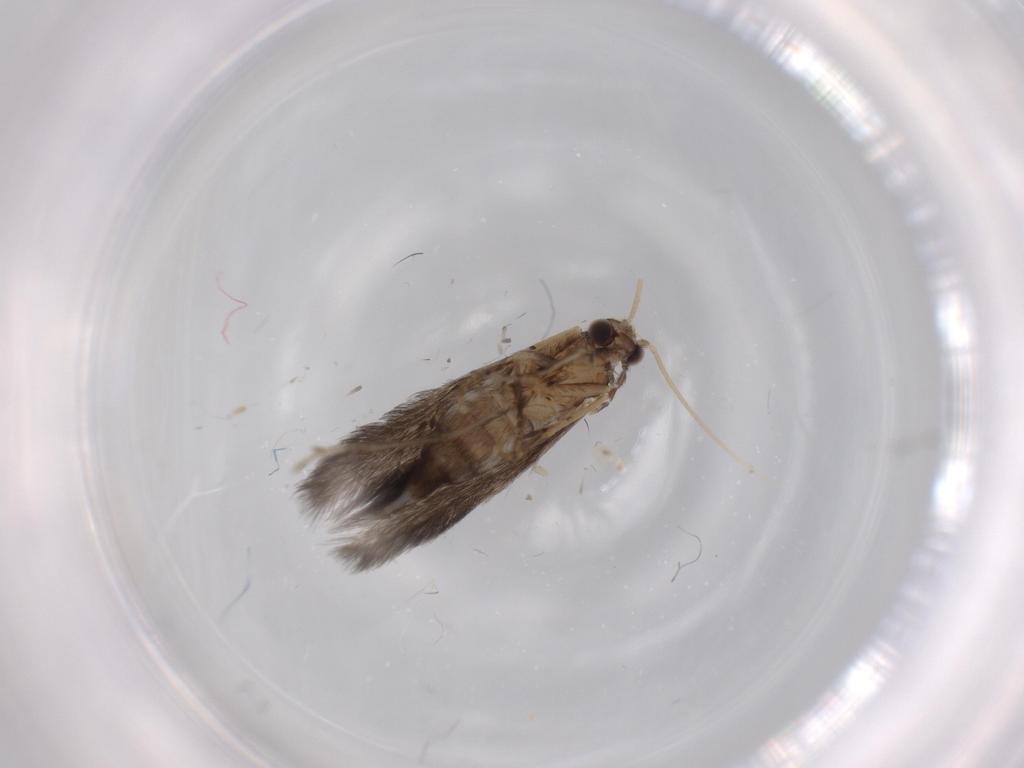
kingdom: Animalia
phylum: Arthropoda
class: Insecta
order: Trichoptera
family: Hydroptilidae
